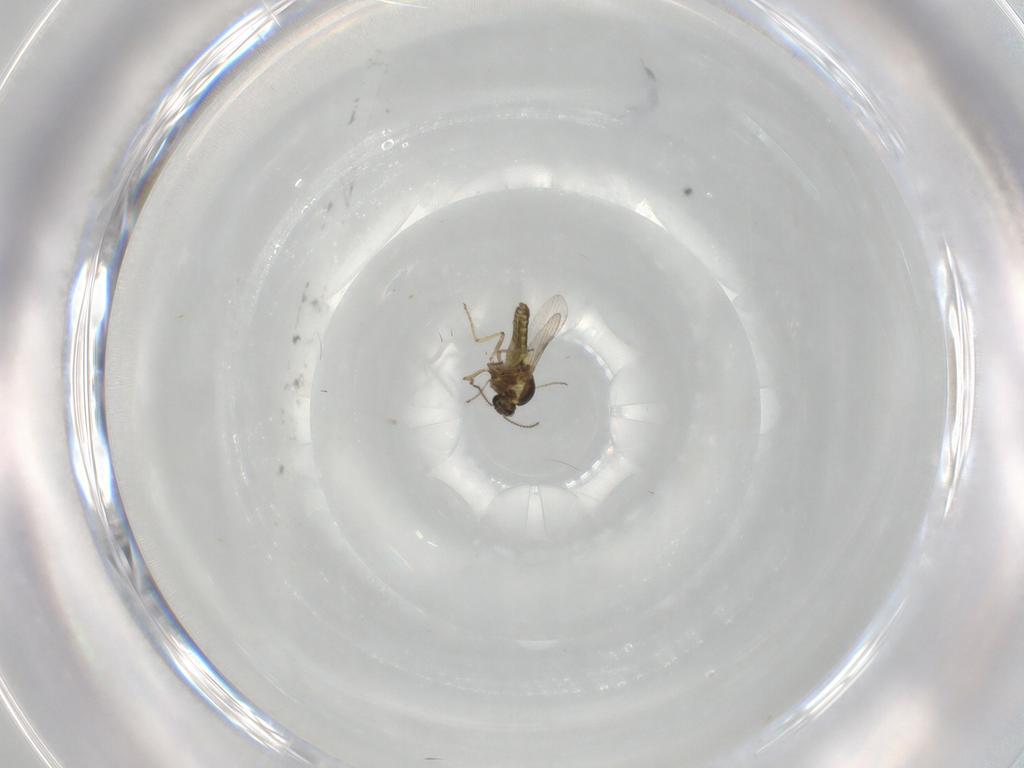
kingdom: Animalia
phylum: Arthropoda
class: Insecta
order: Diptera
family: Ceratopogonidae
